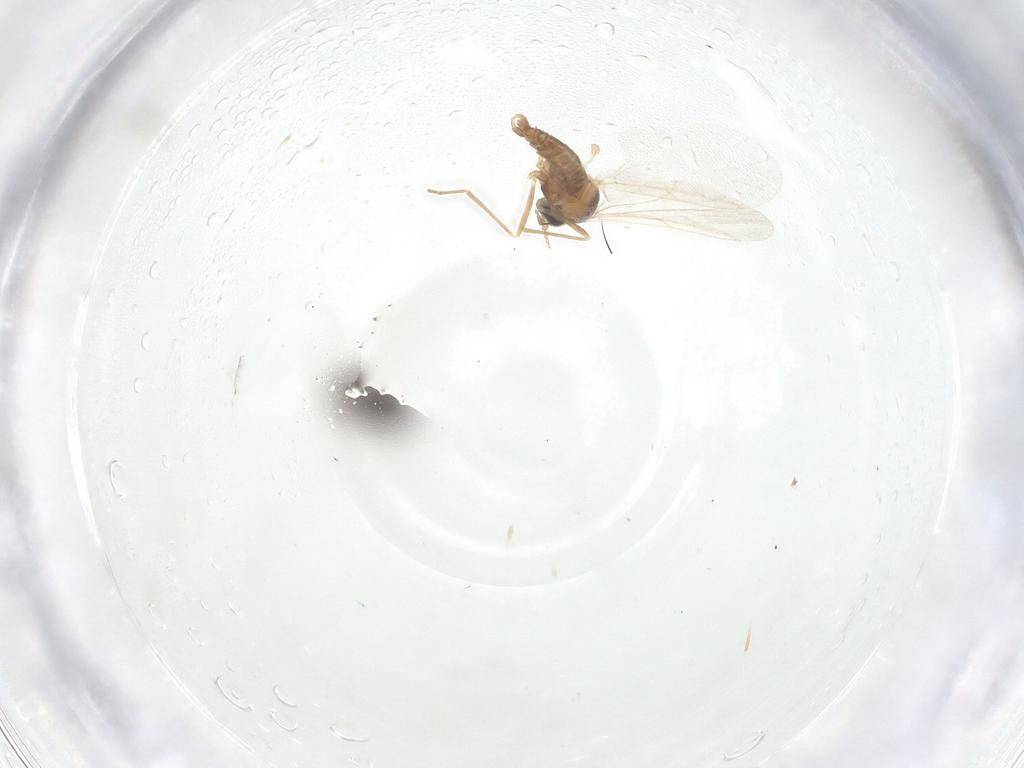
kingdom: Animalia
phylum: Arthropoda
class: Insecta
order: Diptera
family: Cecidomyiidae
